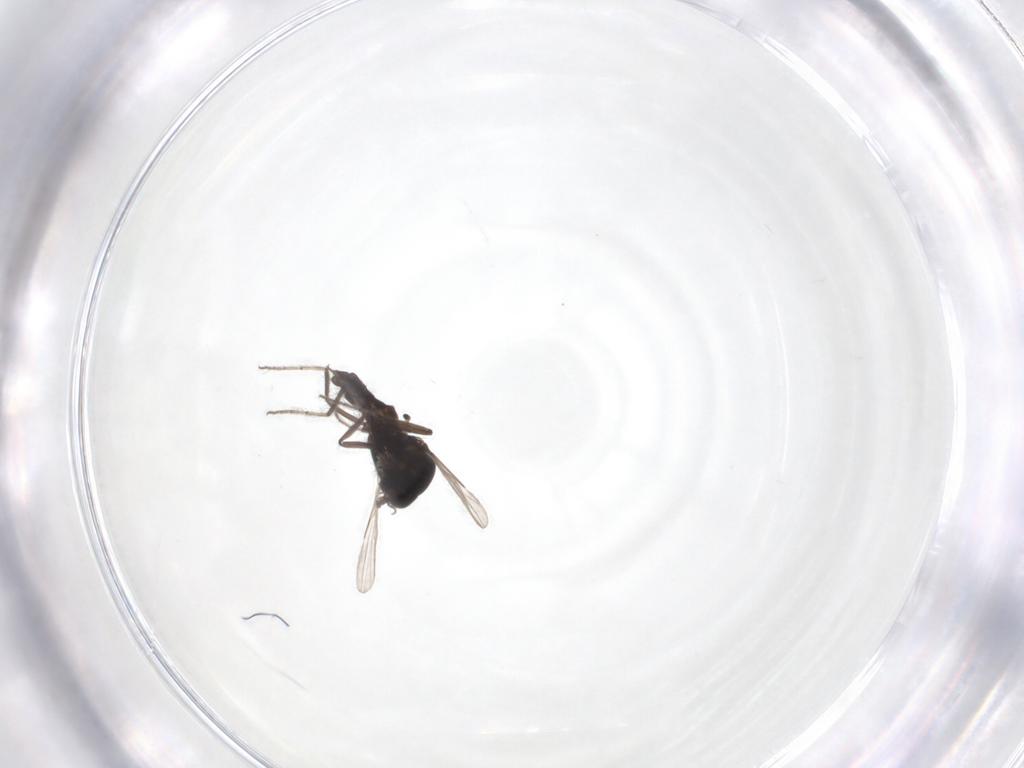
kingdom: Animalia
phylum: Arthropoda
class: Insecta
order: Diptera
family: Ceratopogonidae
